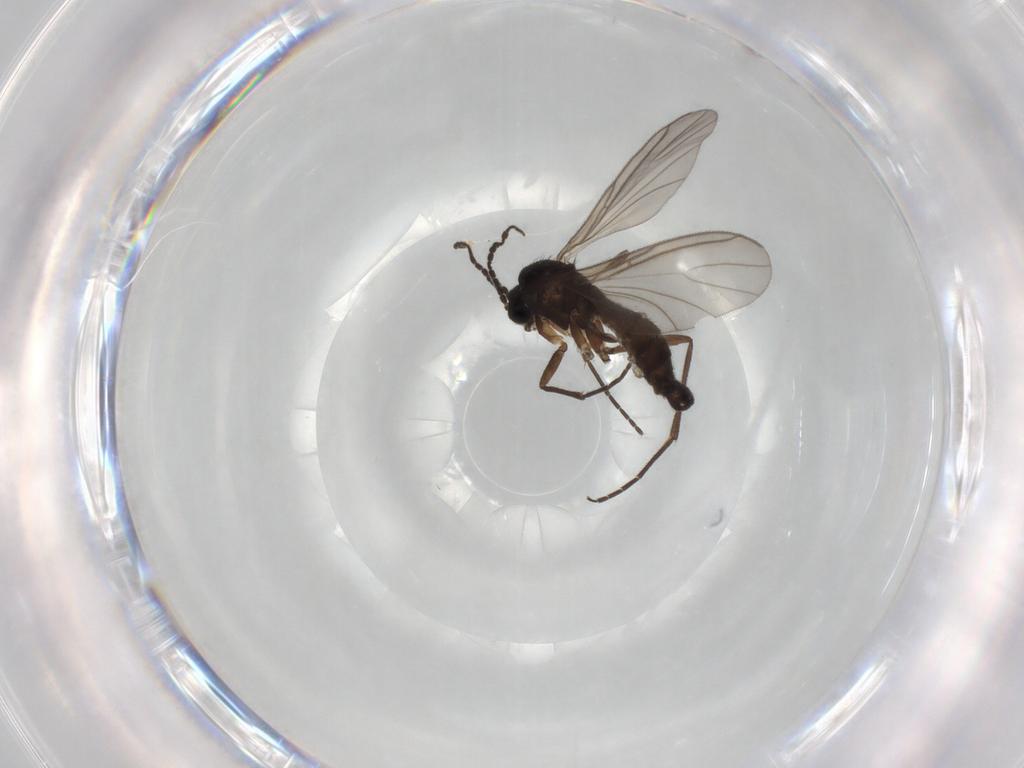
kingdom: Animalia
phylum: Arthropoda
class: Insecta
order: Diptera
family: Sciaridae
